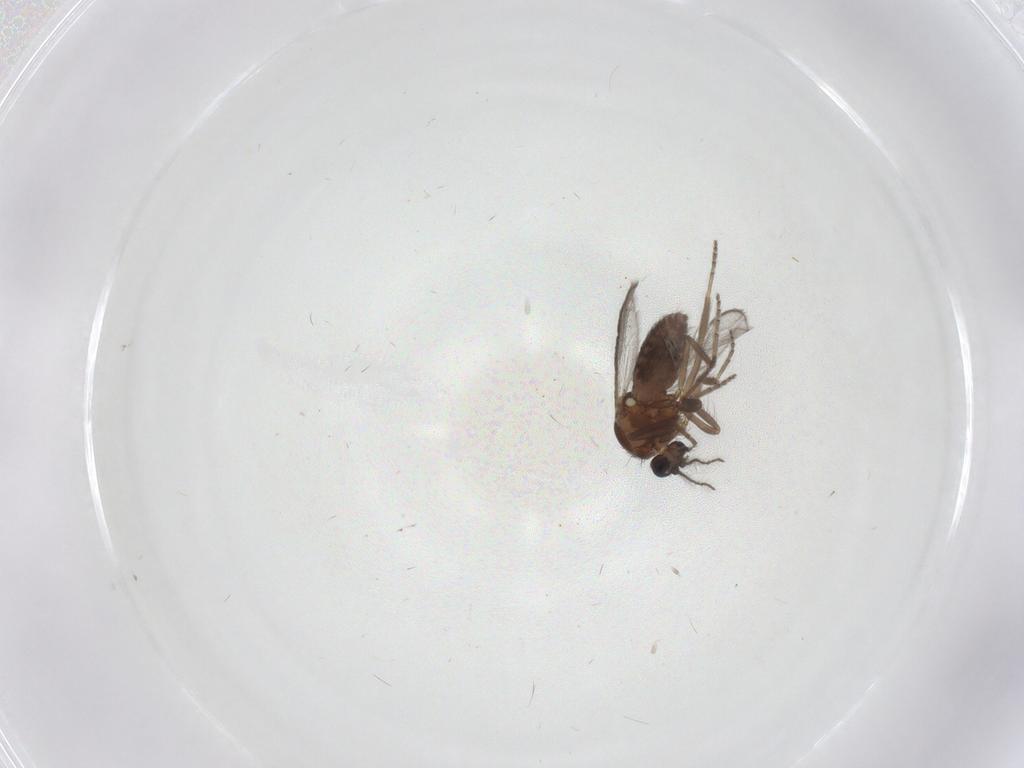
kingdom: Animalia
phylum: Arthropoda
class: Insecta
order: Diptera
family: Ceratopogonidae
